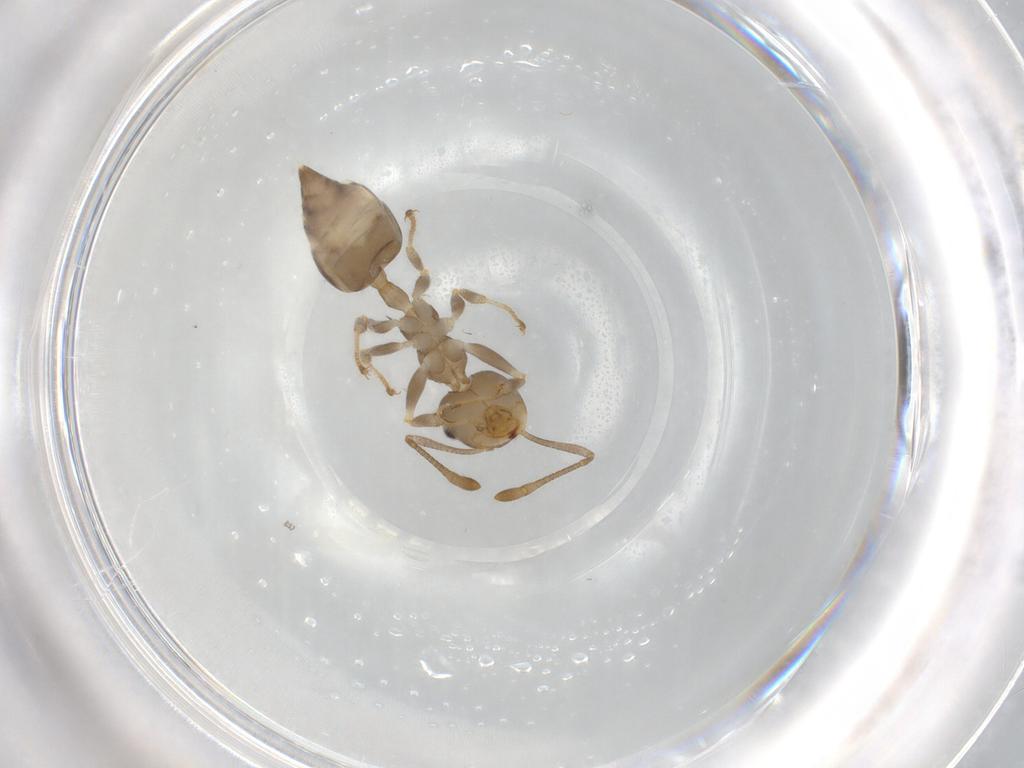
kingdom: Animalia
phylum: Arthropoda
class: Insecta
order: Hymenoptera
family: Formicidae
